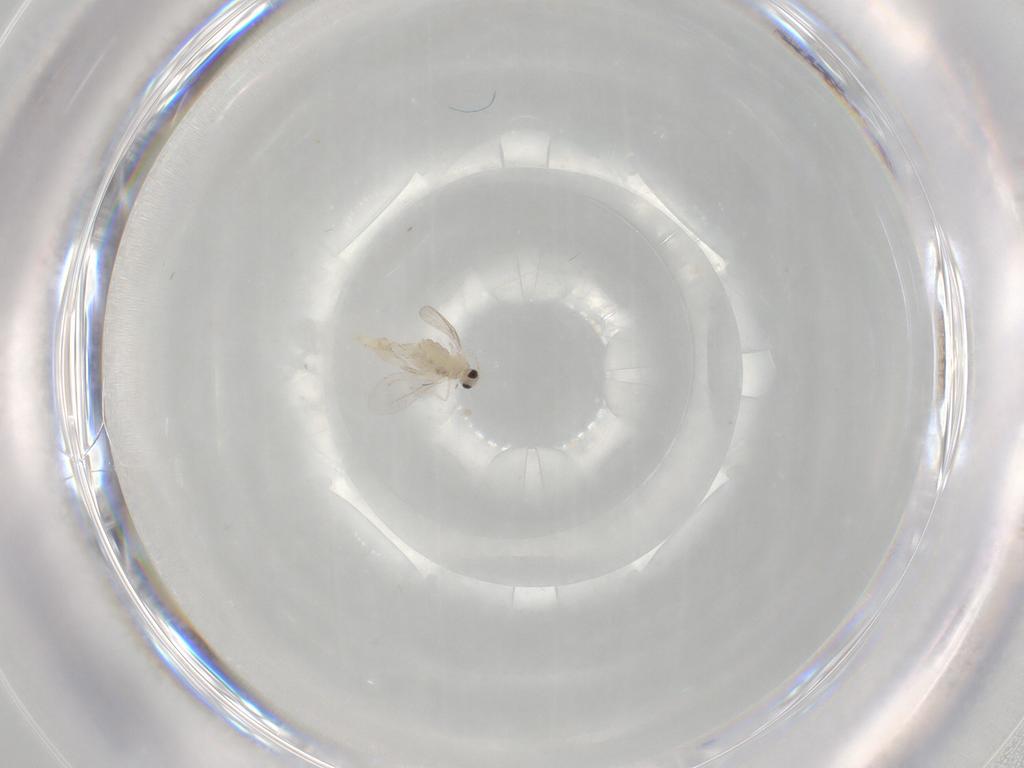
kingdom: Animalia
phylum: Arthropoda
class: Insecta
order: Diptera
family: Cecidomyiidae
